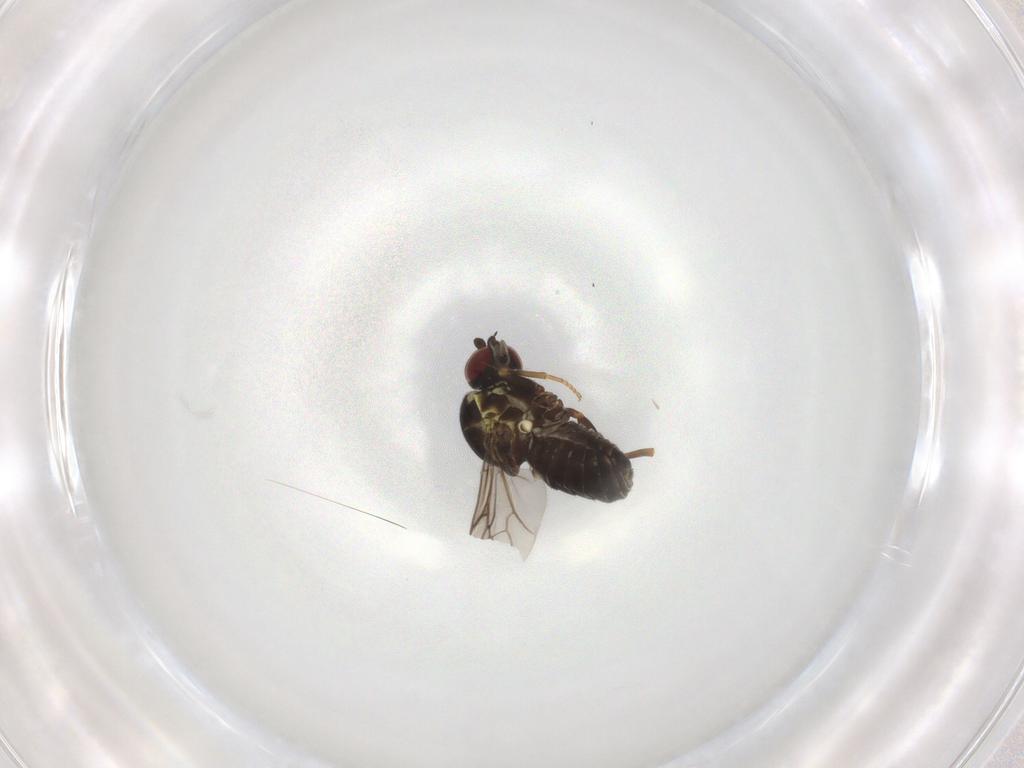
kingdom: Animalia
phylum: Arthropoda
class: Insecta
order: Diptera
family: Bombyliidae
